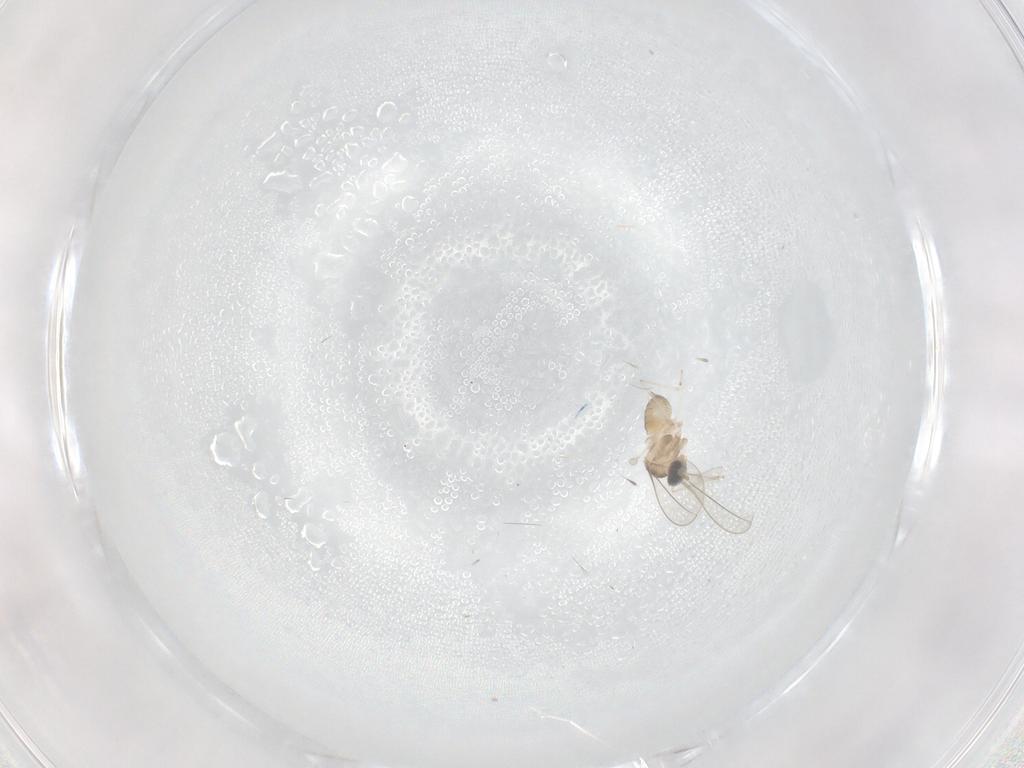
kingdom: Animalia
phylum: Arthropoda
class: Insecta
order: Diptera
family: Cecidomyiidae
